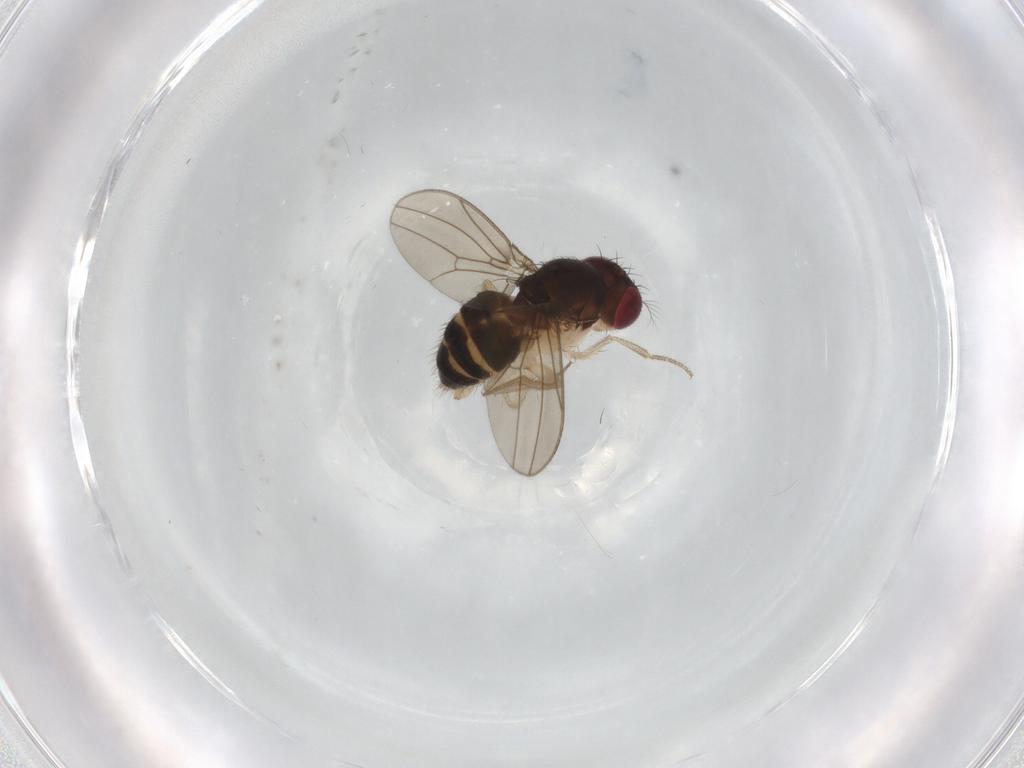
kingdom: Animalia
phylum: Arthropoda
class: Insecta
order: Diptera
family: Drosophilidae
